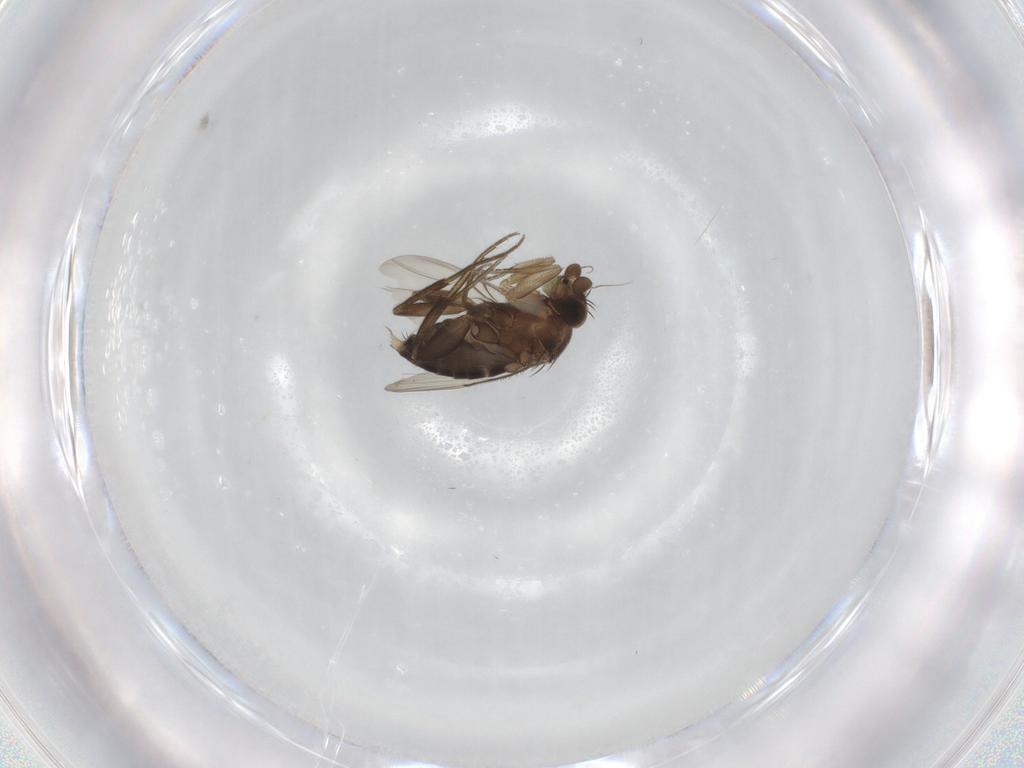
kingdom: Animalia
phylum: Arthropoda
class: Insecta
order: Diptera
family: Phoridae
